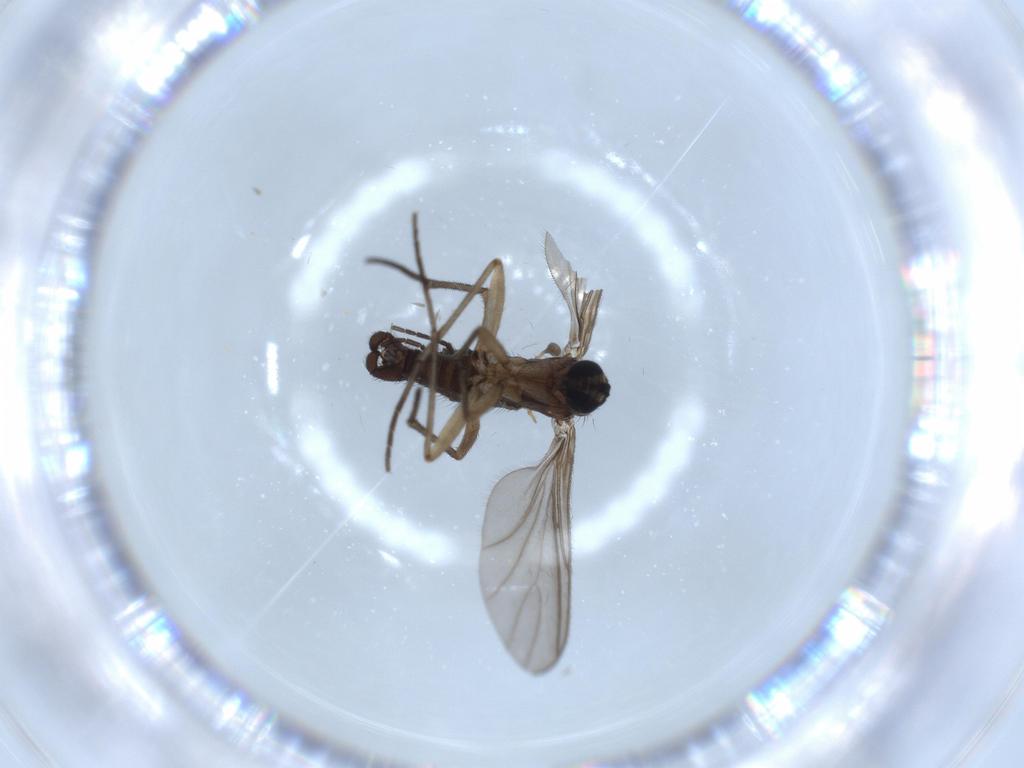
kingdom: Animalia
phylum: Arthropoda
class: Insecta
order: Diptera
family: Sciaridae
